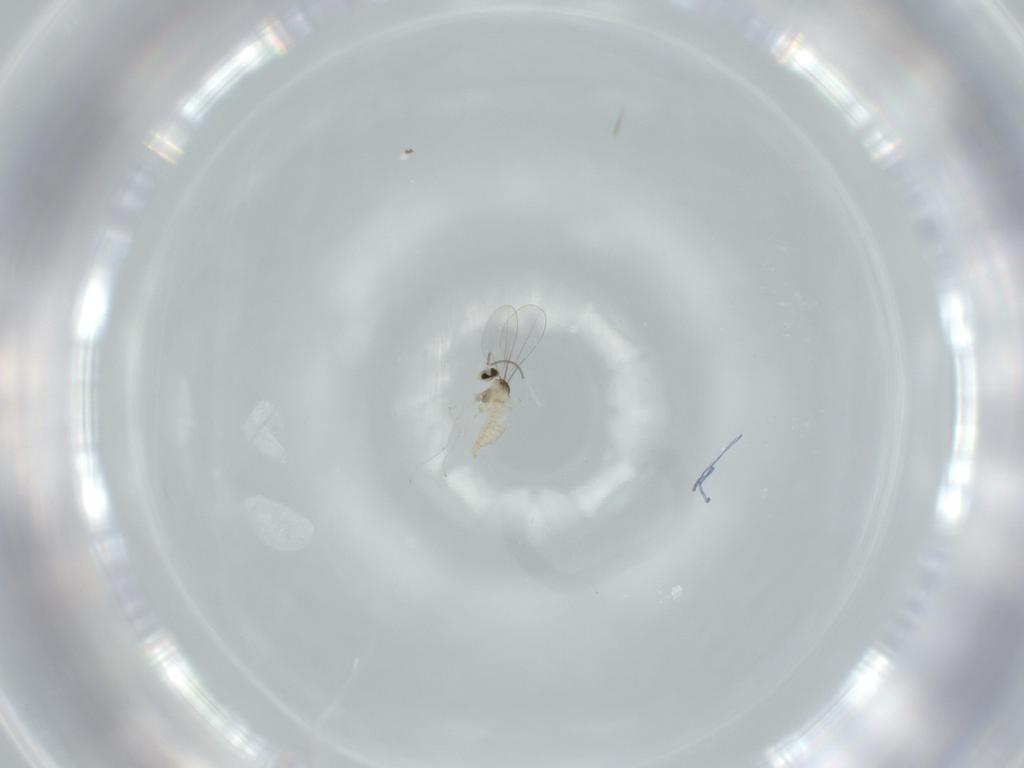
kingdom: Animalia
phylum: Arthropoda
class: Insecta
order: Diptera
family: Cecidomyiidae
